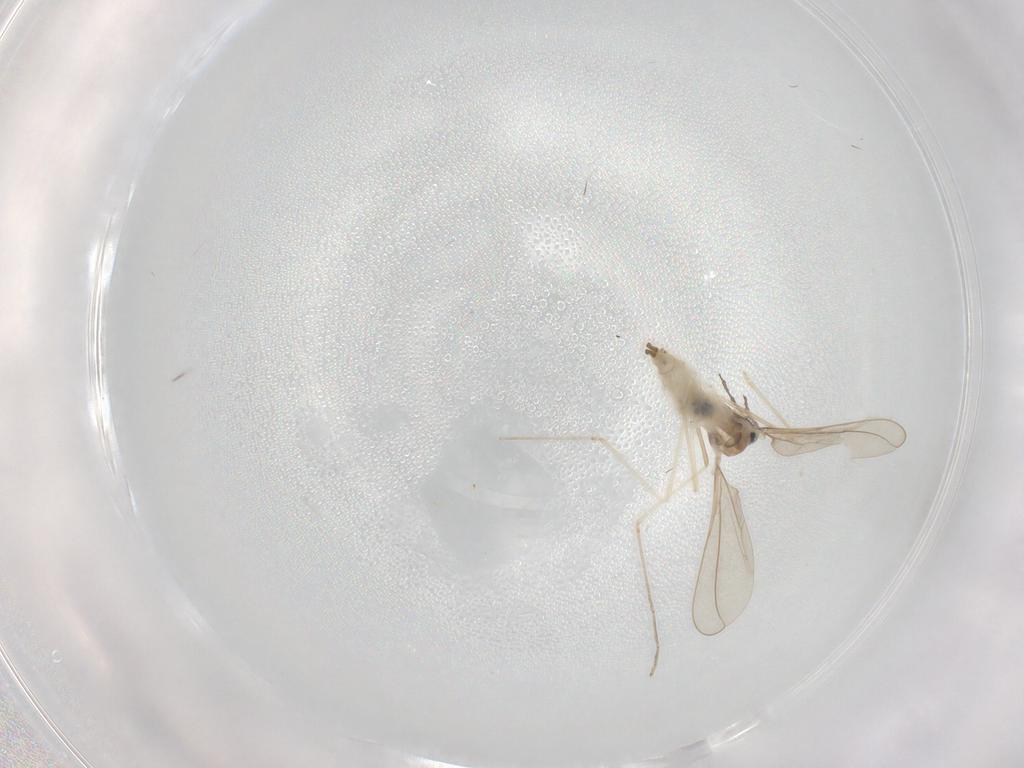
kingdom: Animalia
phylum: Arthropoda
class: Insecta
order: Diptera
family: Cecidomyiidae
